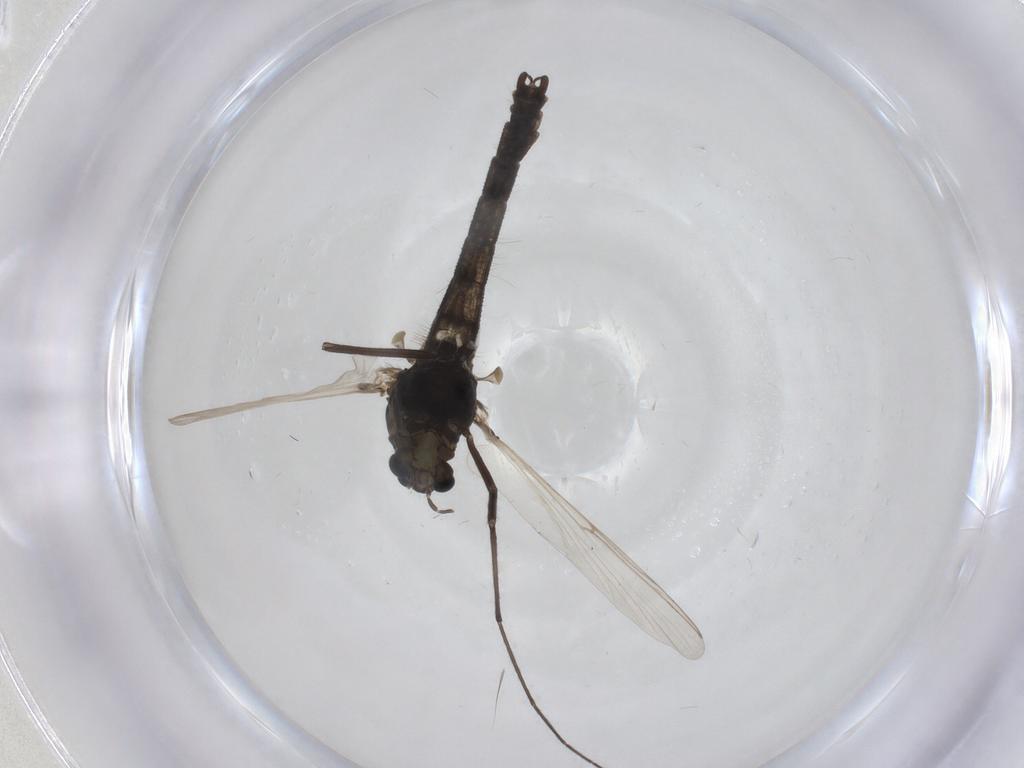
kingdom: Animalia
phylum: Arthropoda
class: Insecta
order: Diptera
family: Chironomidae
